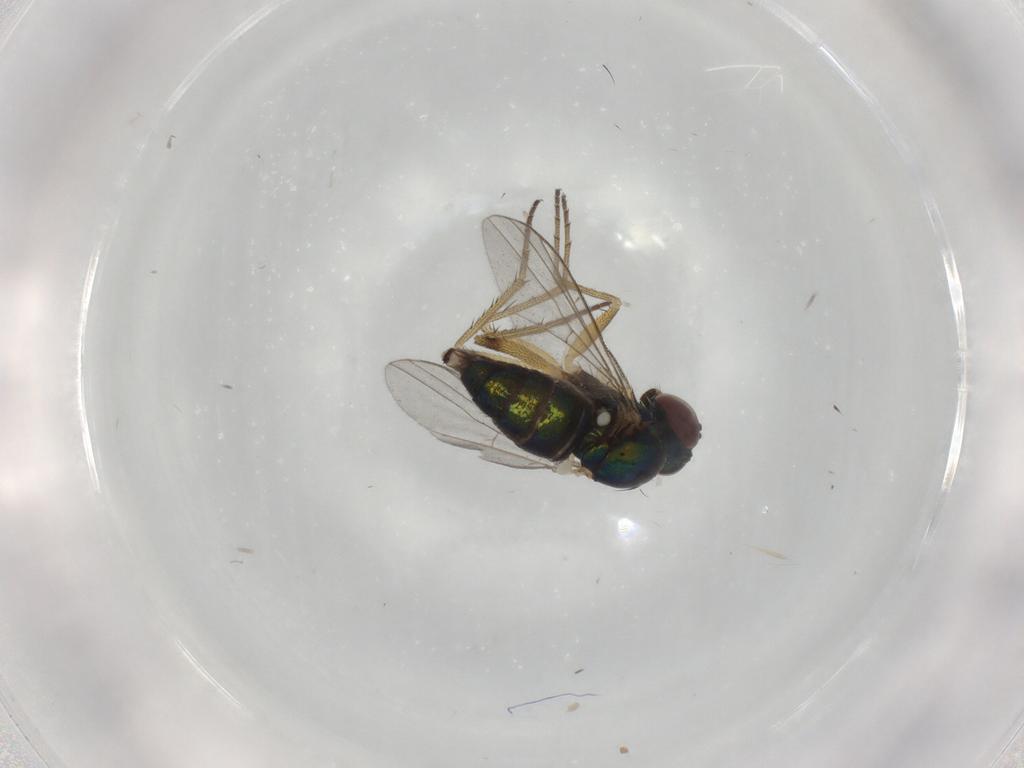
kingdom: Animalia
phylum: Arthropoda
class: Insecta
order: Diptera
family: Dolichopodidae
